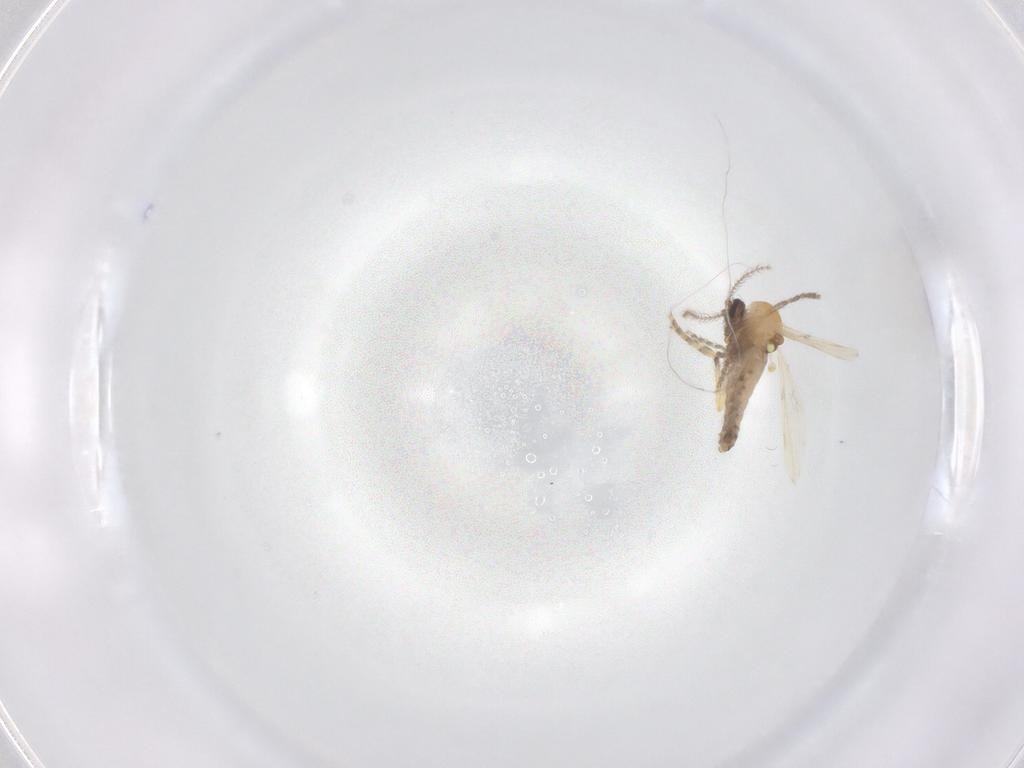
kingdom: Animalia
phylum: Arthropoda
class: Insecta
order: Diptera
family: Ceratopogonidae
